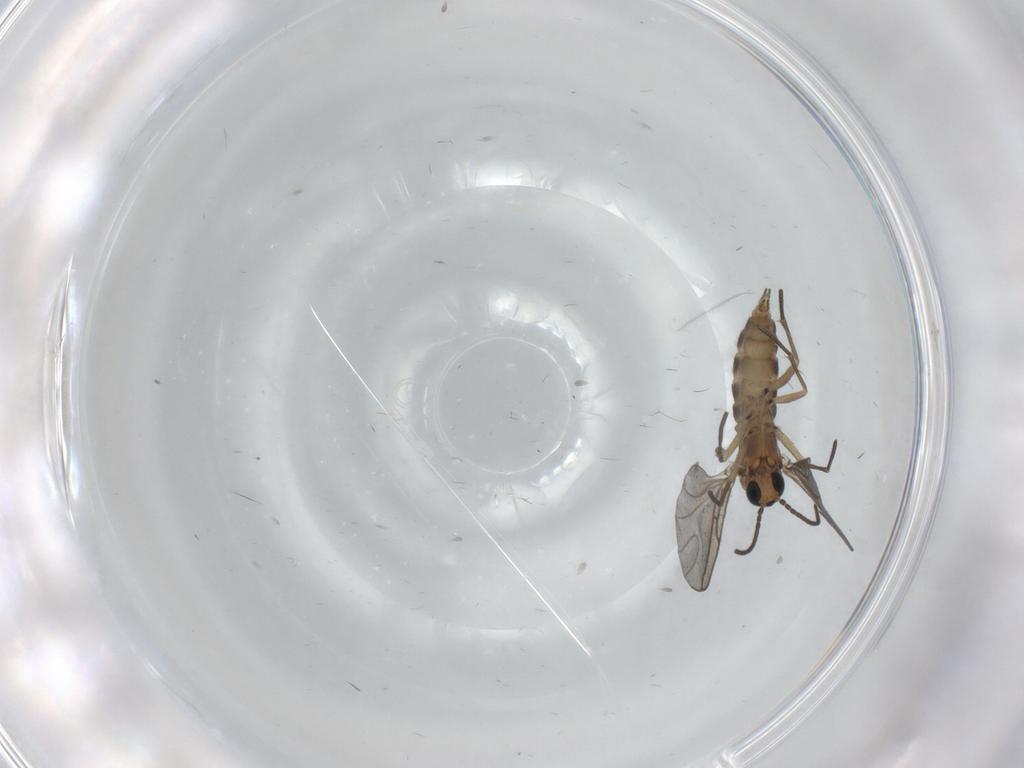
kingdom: Animalia
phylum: Arthropoda
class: Insecta
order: Diptera
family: Sciaridae
